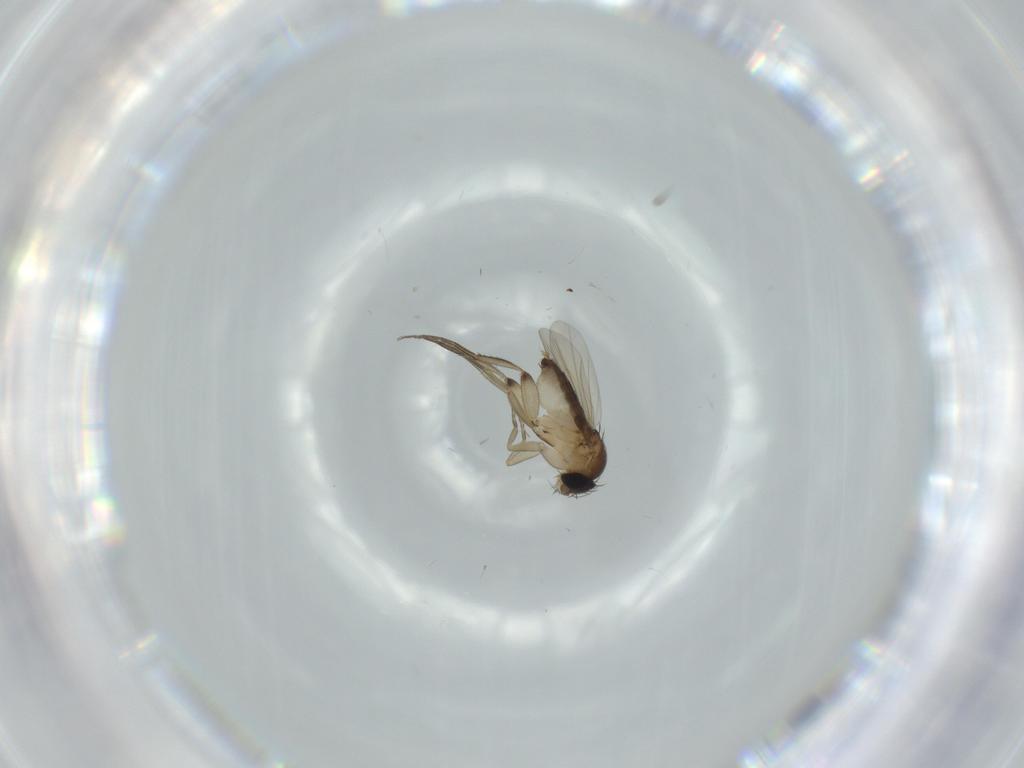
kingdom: Animalia
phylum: Arthropoda
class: Insecta
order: Diptera
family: Phoridae
